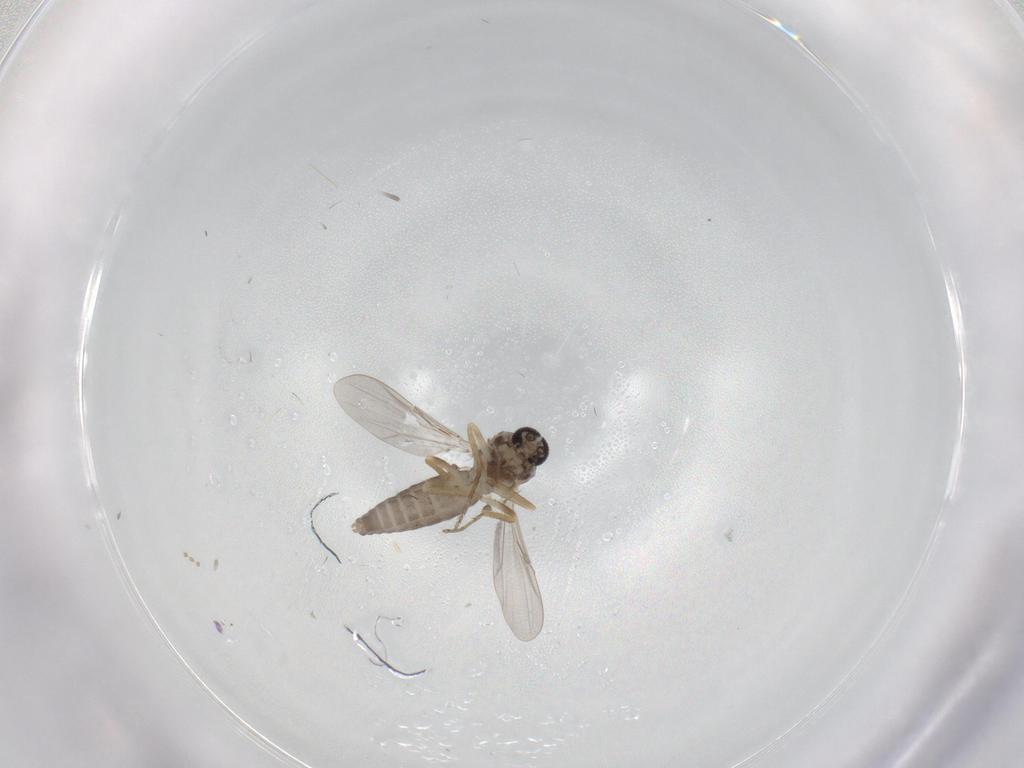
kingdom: Animalia
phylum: Arthropoda
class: Insecta
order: Diptera
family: Ceratopogonidae
